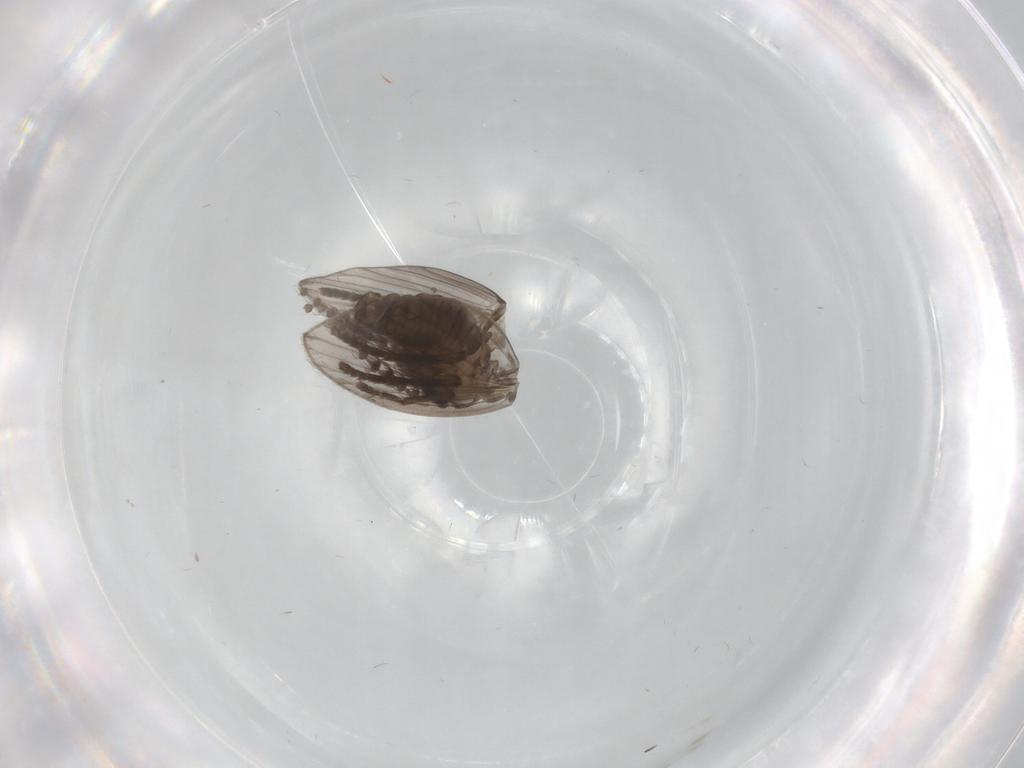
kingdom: Animalia
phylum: Arthropoda
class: Insecta
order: Diptera
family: Psychodidae
